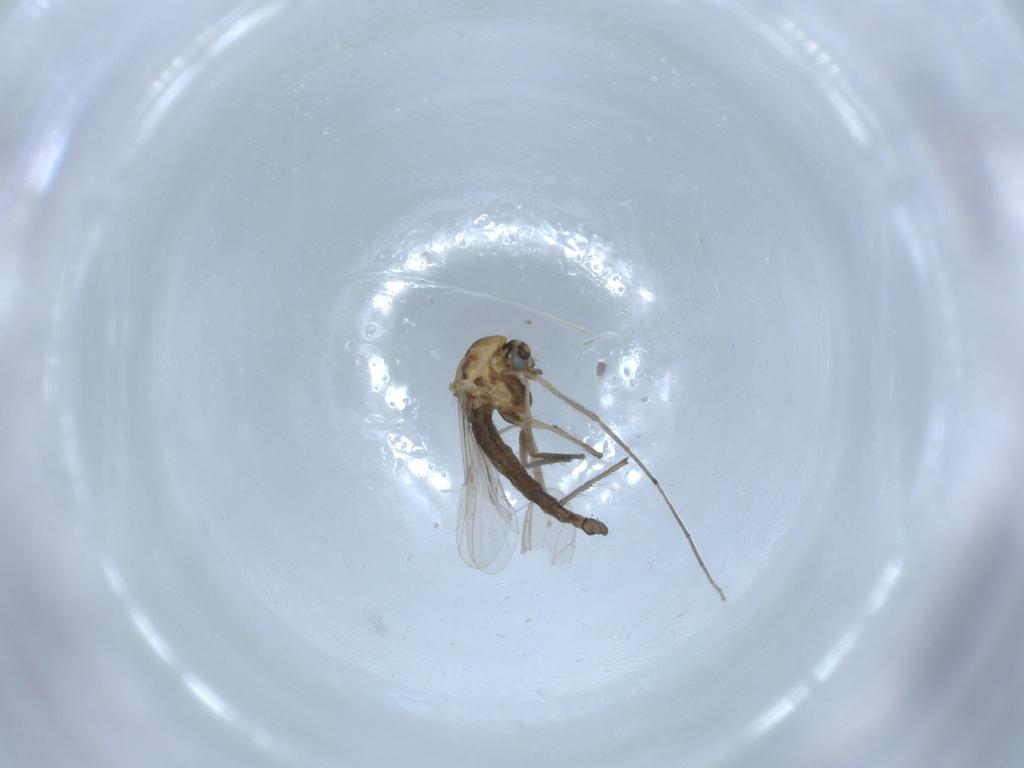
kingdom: Animalia
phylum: Arthropoda
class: Insecta
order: Diptera
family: Chironomidae
